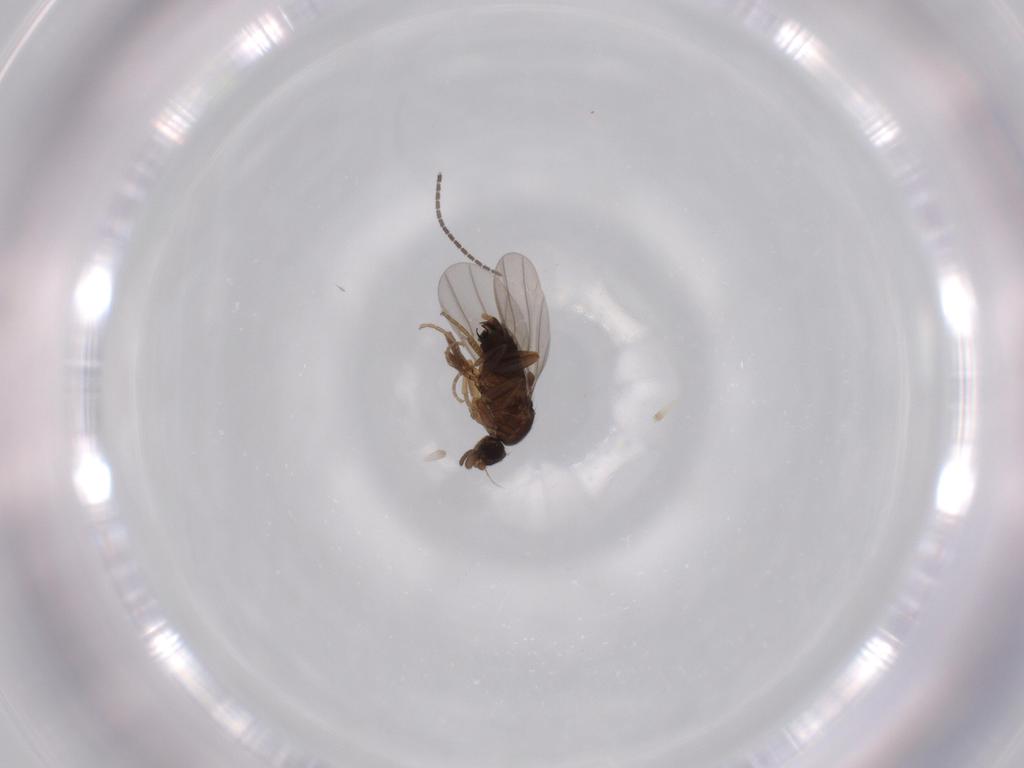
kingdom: Animalia
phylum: Arthropoda
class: Insecta
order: Diptera
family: Phoridae
